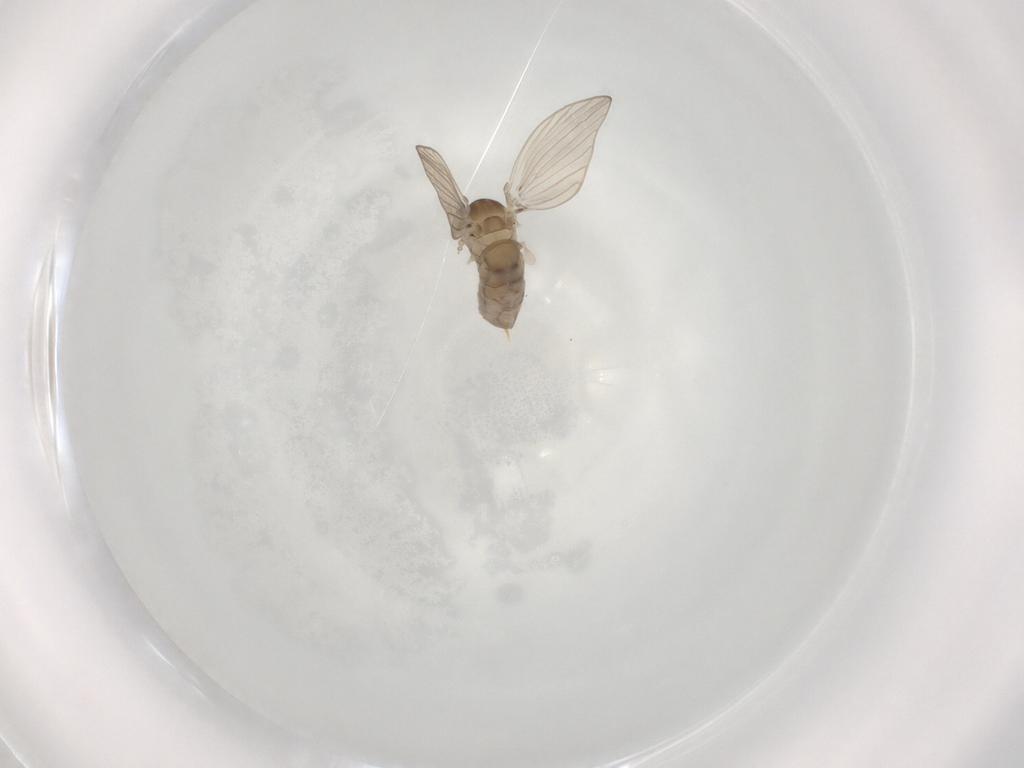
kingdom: Animalia
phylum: Arthropoda
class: Insecta
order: Diptera
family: Psychodidae
